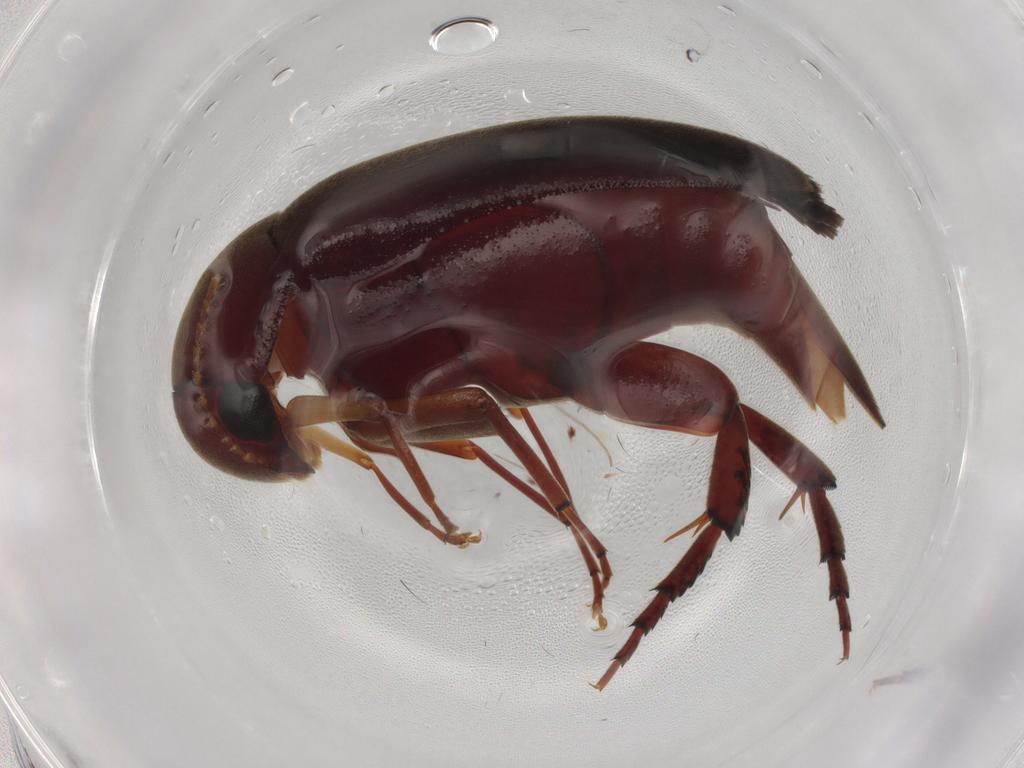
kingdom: Animalia
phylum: Arthropoda
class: Insecta
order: Coleoptera
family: Mordellidae
